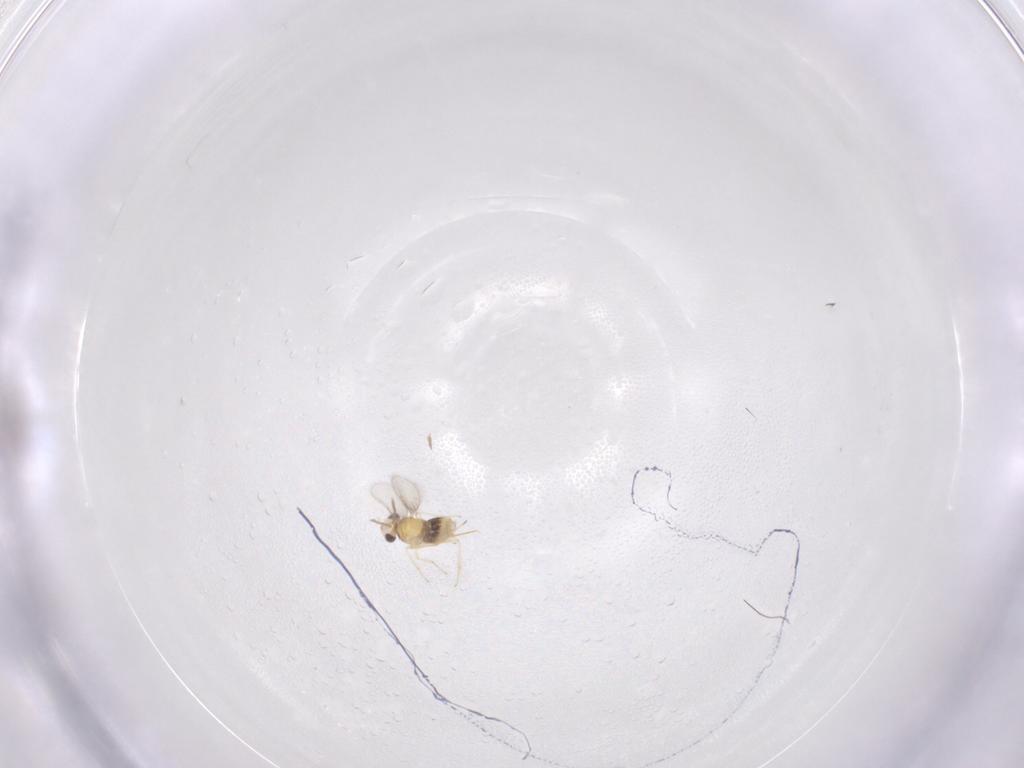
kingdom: Animalia
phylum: Arthropoda
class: Insecta
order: Hymenoptera
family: Aphelinidae
